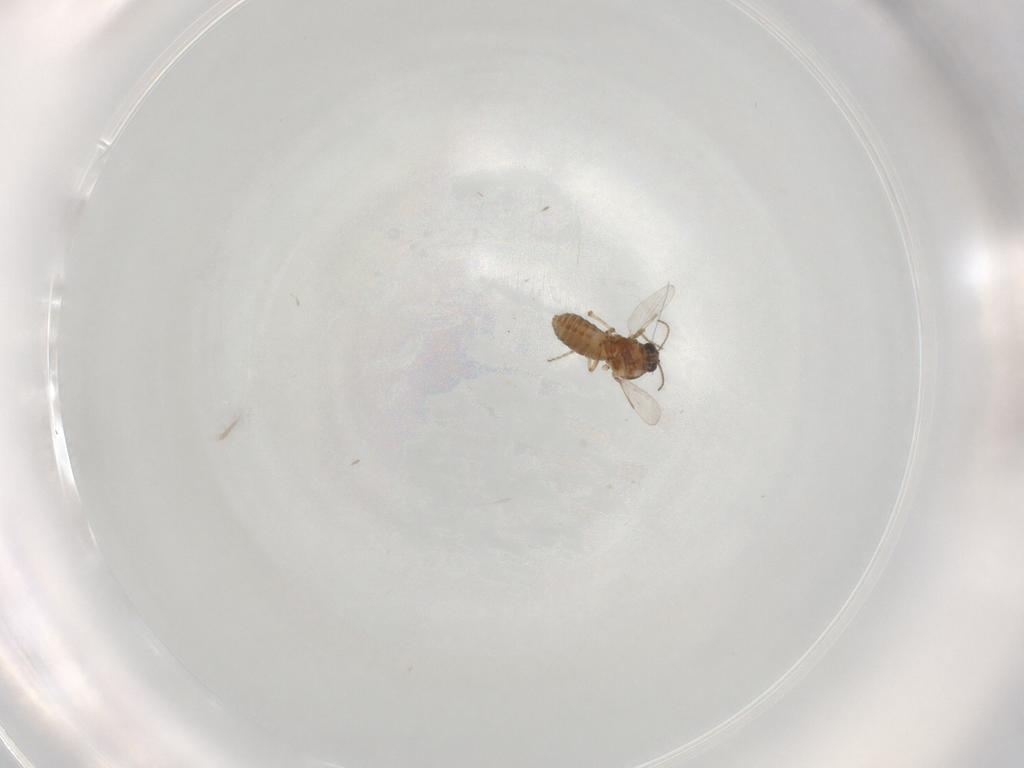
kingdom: Animalia
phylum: Arthropoda
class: Insecta
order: Diptera
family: Ceratopogonidae
